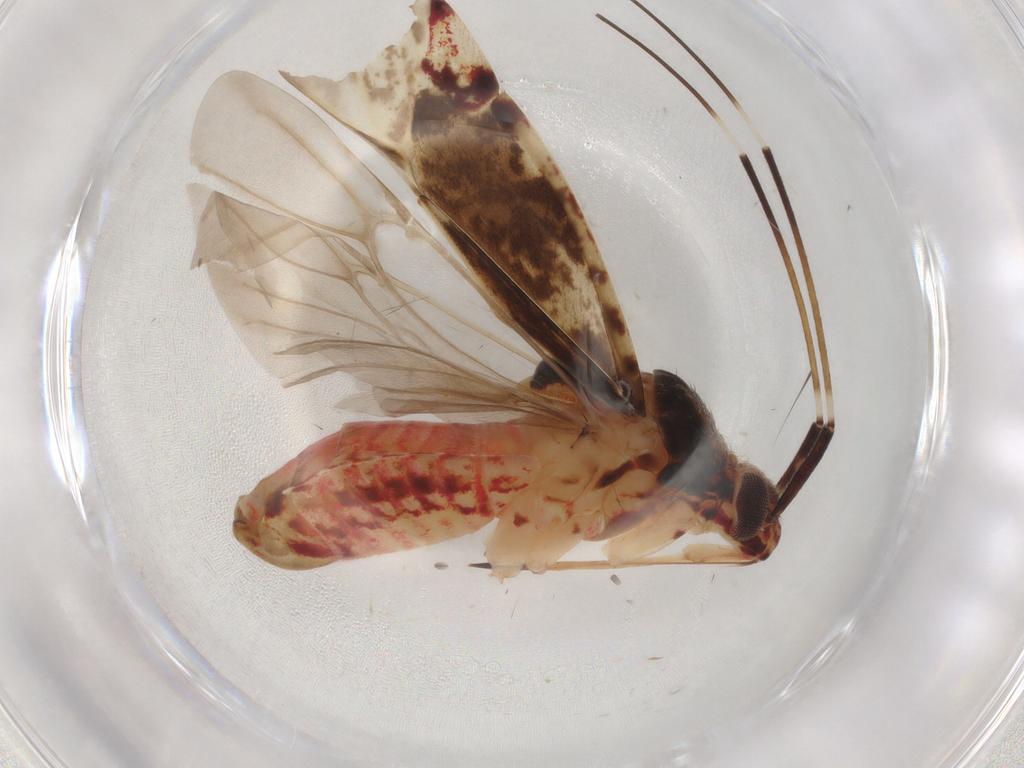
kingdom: Animalia
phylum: Arthropoda
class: Insecta
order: Hemiptera
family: Miridae
